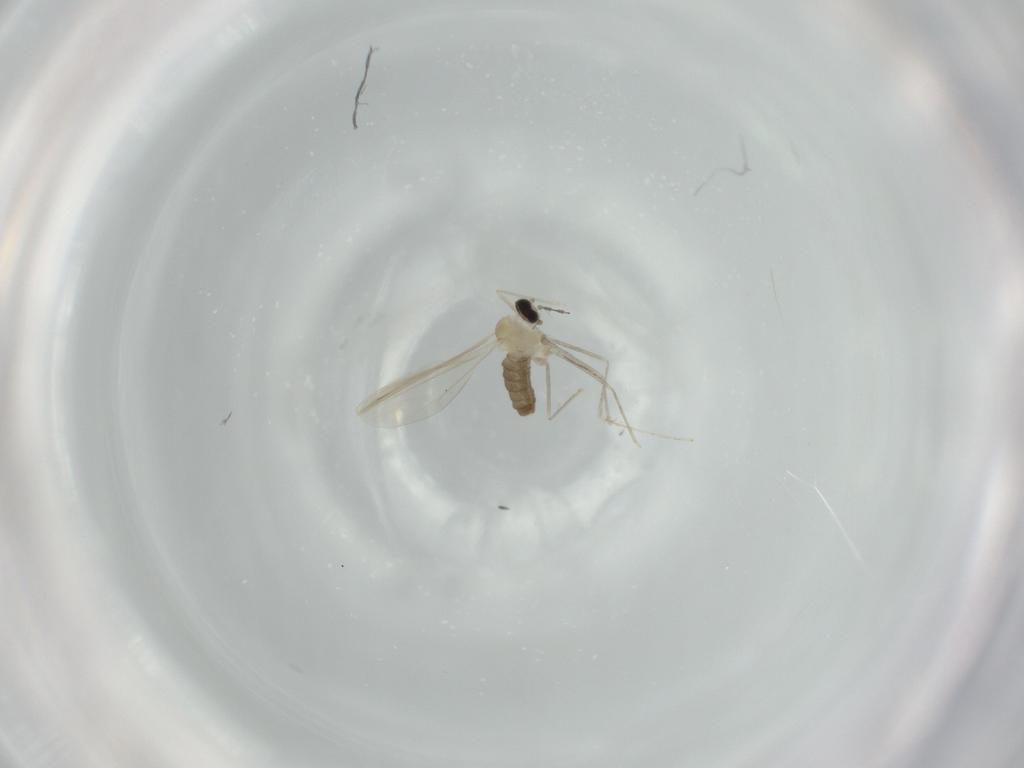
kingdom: Animalia
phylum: Arthropoda
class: Insecta
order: Diptera
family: Cecidomyiidae
